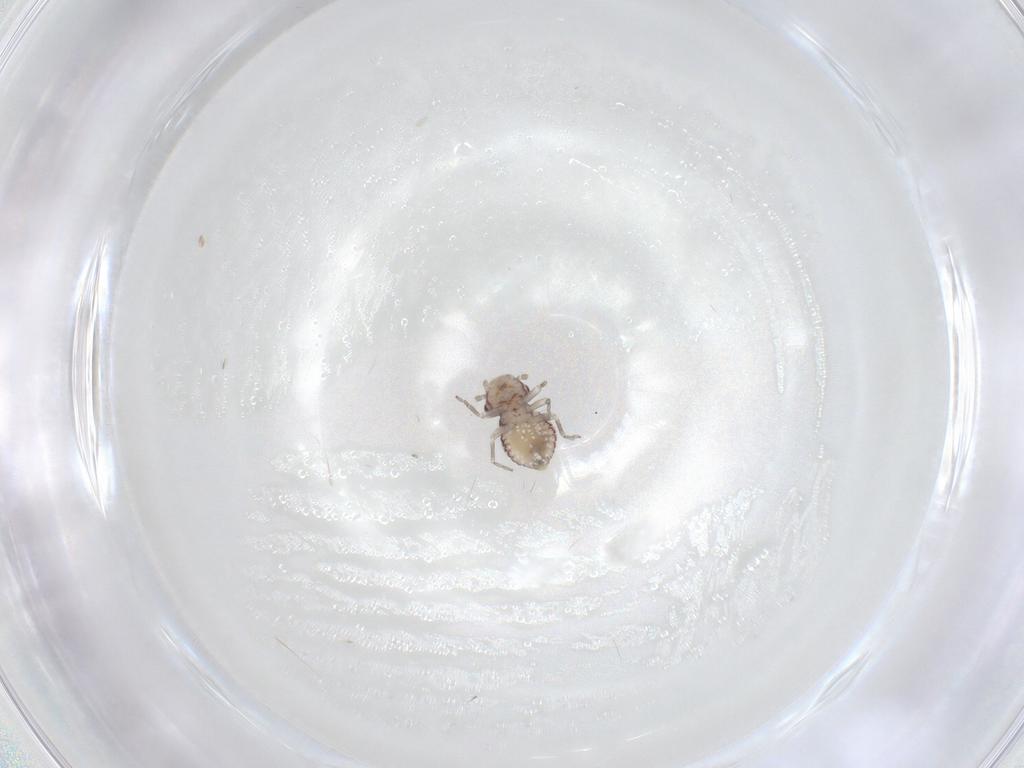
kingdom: Animalia
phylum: Arthropoda
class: Insecta
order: Psocodea
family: Philotarsidae
